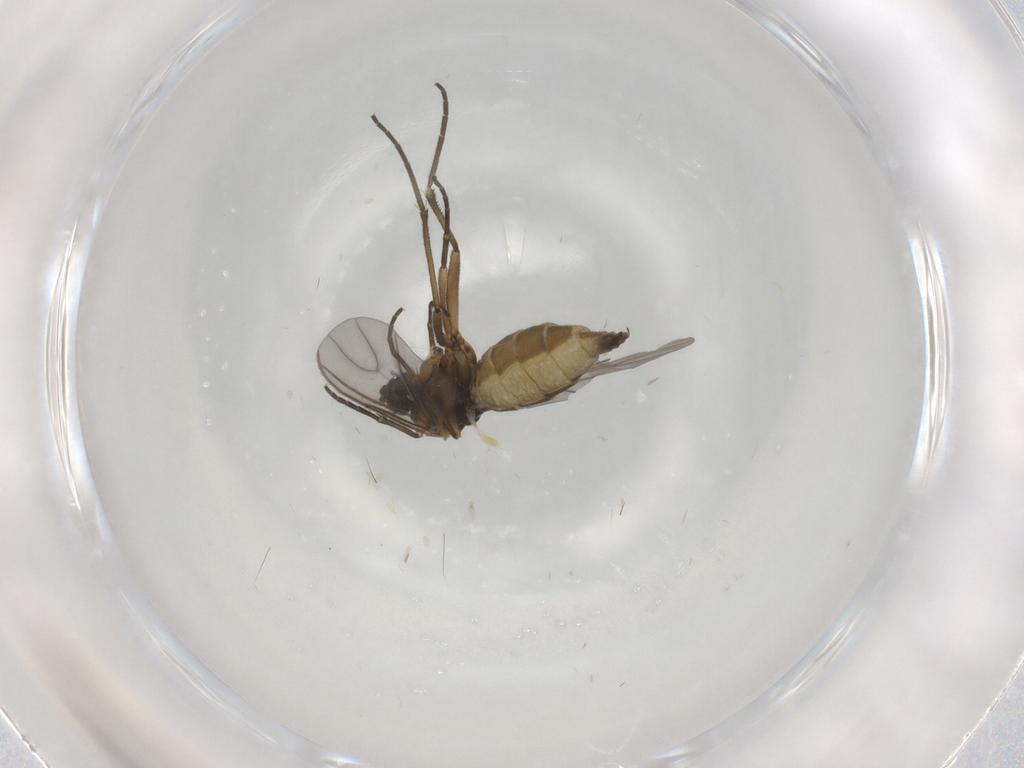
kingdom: Animalia
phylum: Arthropoda
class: Insecta
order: Diptera
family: Sciaridae
